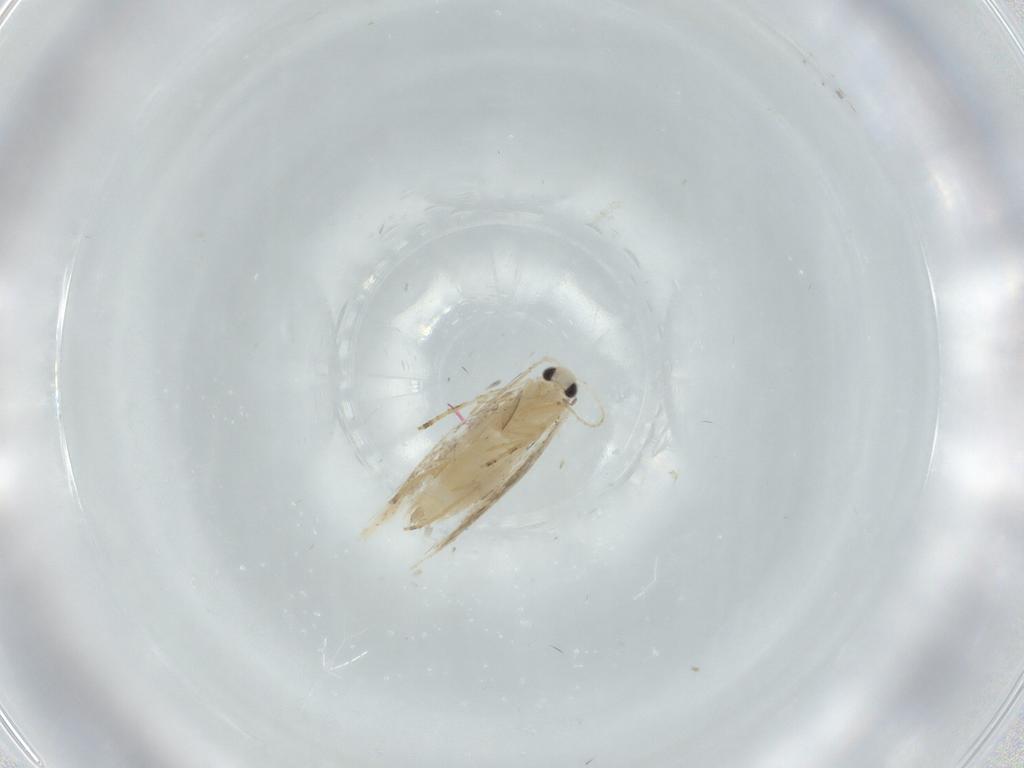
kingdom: Animalia
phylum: Arthropoda
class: Insecta
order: Lepidoptera
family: Bucculatricidae
